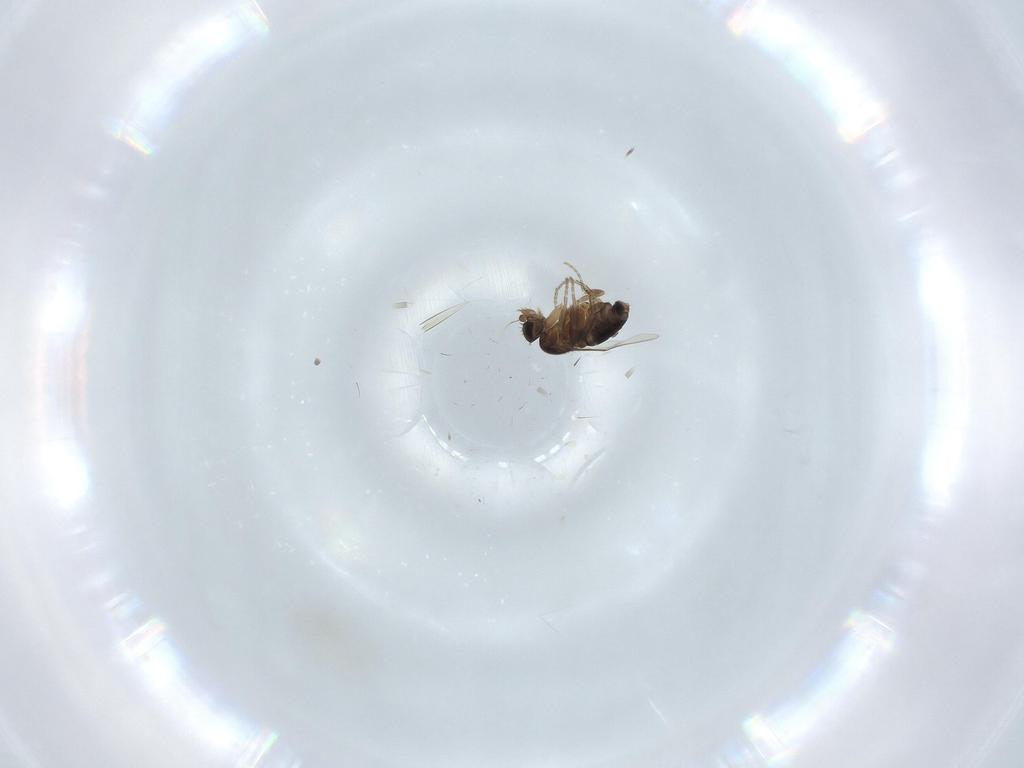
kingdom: Animalia
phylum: Arthropoda
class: Insecta
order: Diptera
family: Phoridae
